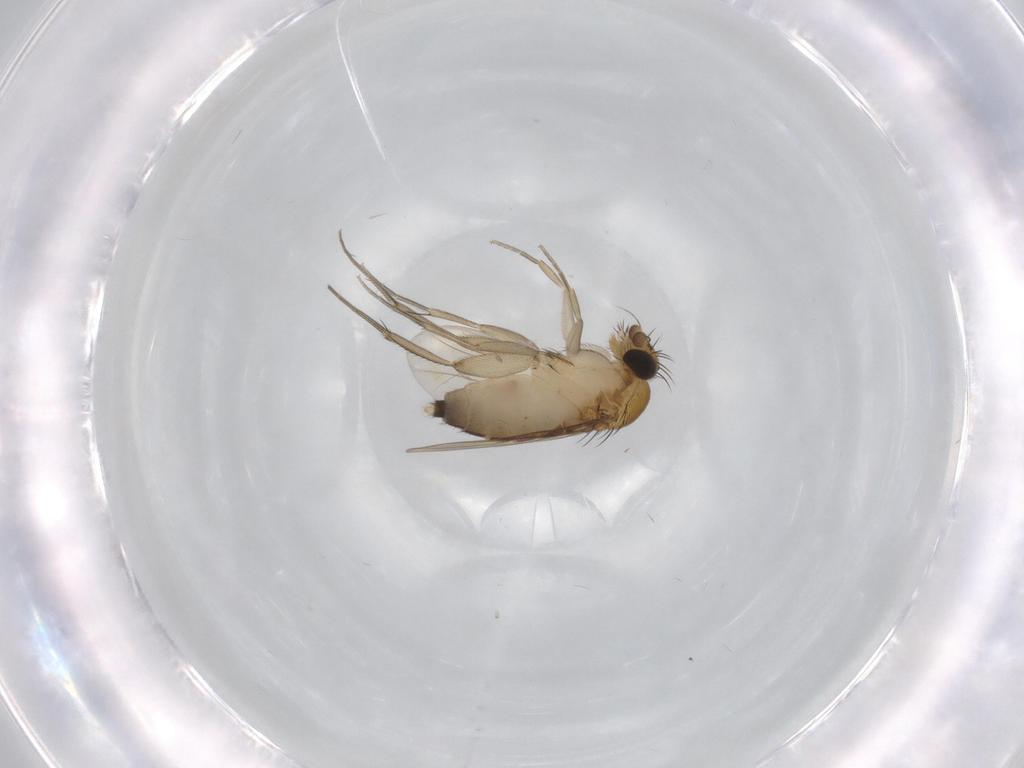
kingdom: Animalia
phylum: Arthropoda
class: Insecta
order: Diptera
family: Phoridae
